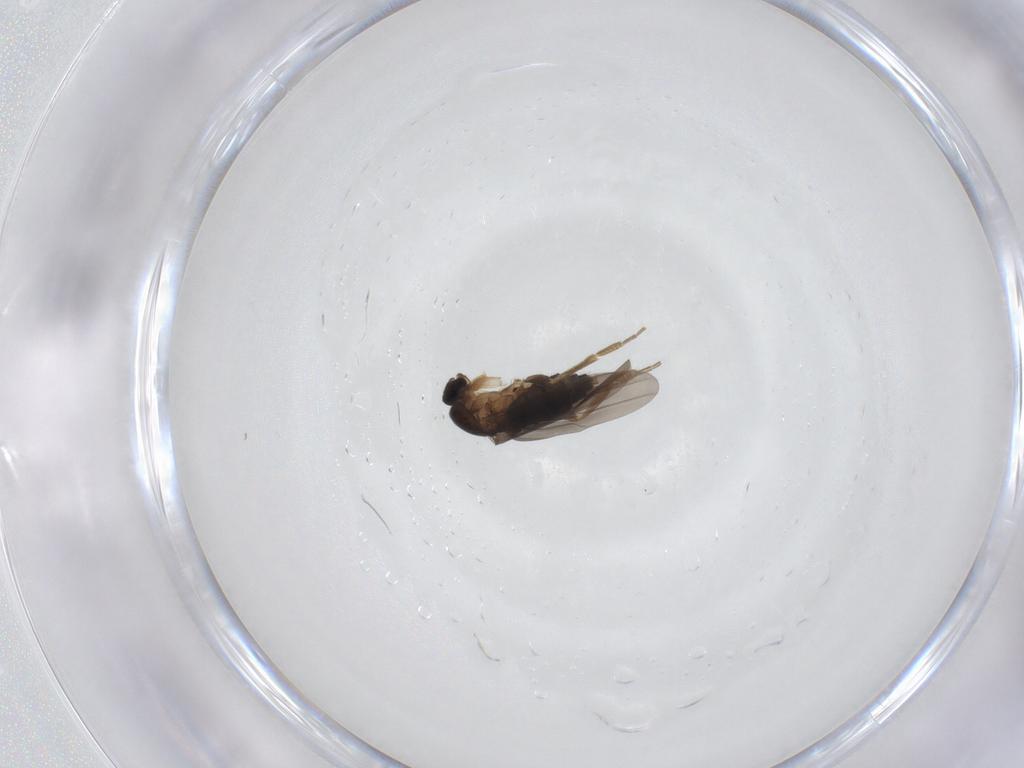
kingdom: Animalia
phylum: Arthropoda
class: Insecta
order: Diptera
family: Phoridae
